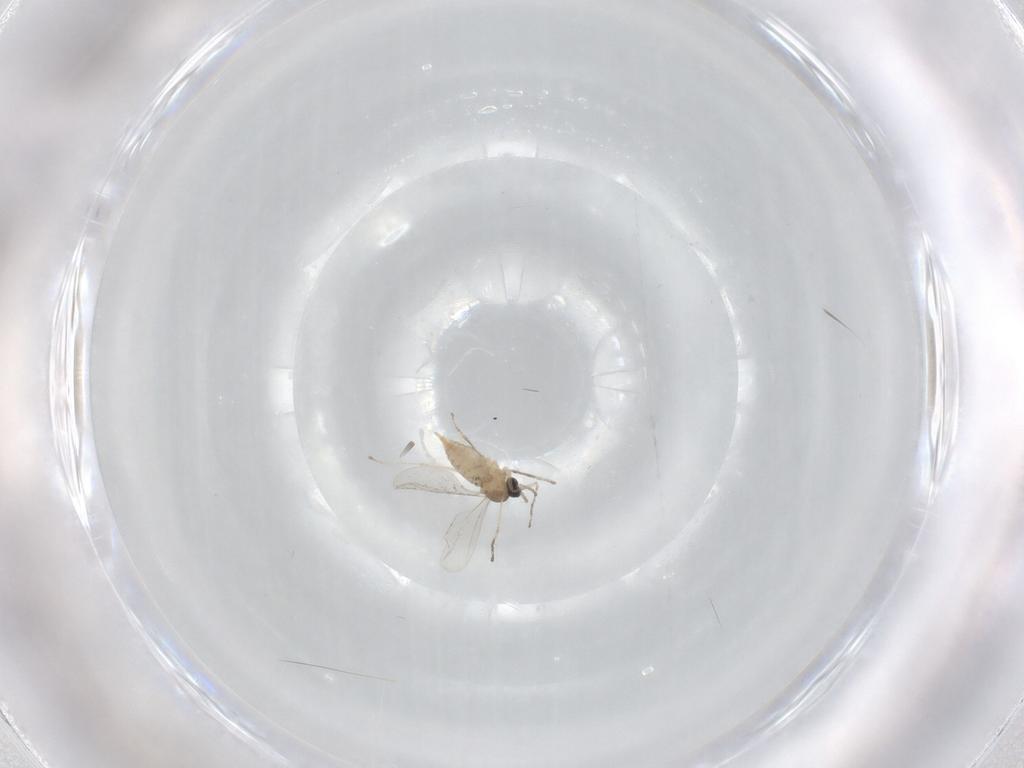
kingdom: Animalia
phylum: Arthropoda
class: Insecta
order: Diptera
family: Cecidomyiidae
